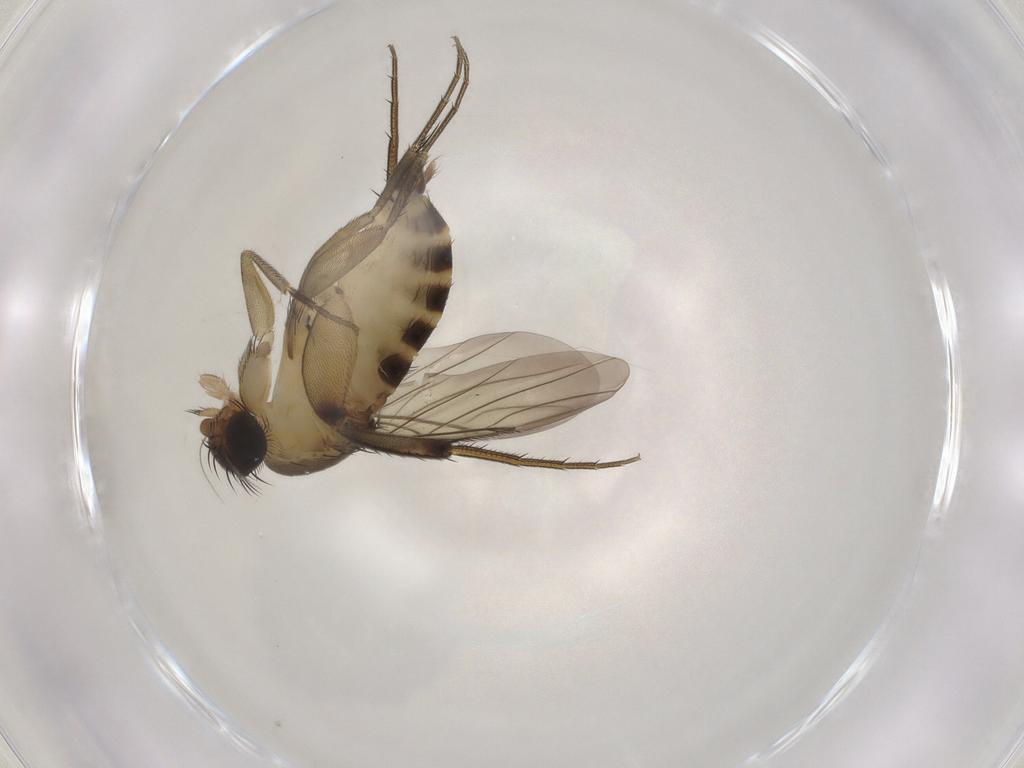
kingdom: Animalia
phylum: Arthropoda
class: Insecta
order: Diptera
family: Phoridae
